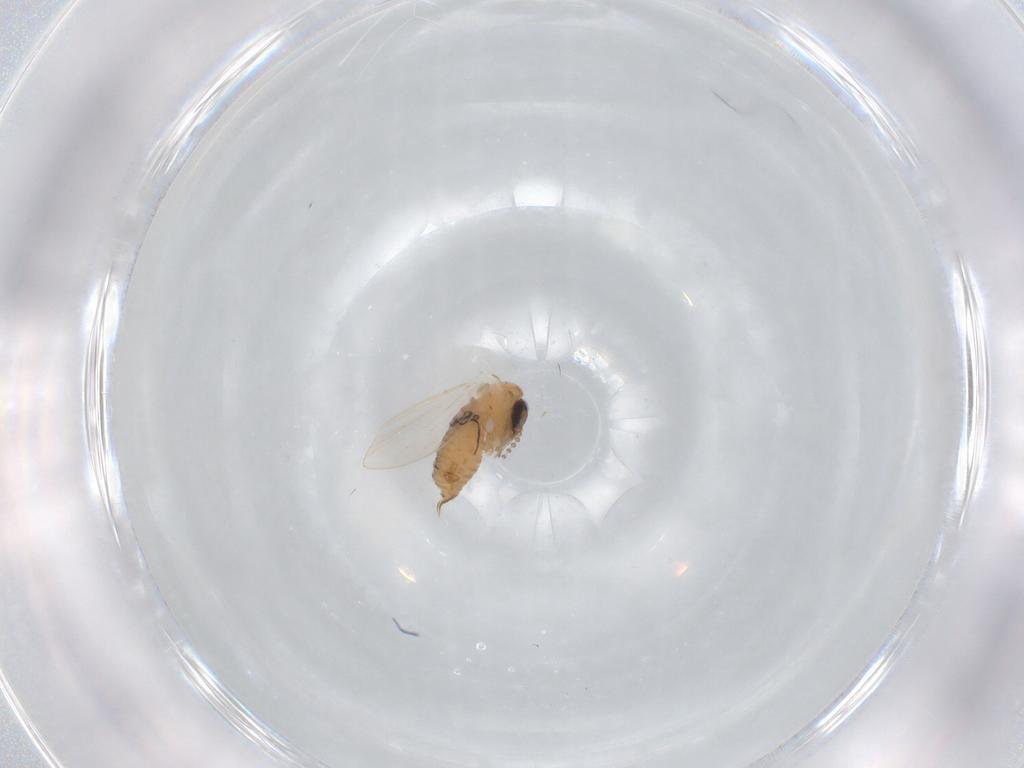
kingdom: Animalia
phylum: Arthropoda
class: Insecta
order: Diptera
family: Psychodidae
